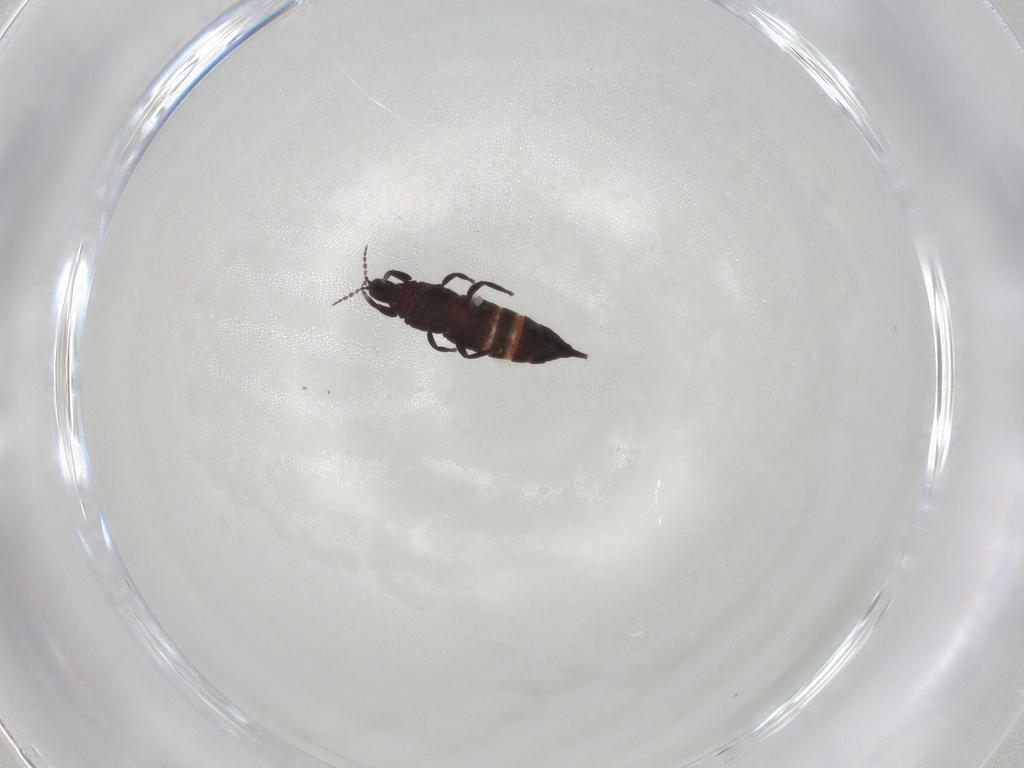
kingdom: Animalia
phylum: Arthropoda
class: Insecta
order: Thysanoptera
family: Phlaeothripidae
